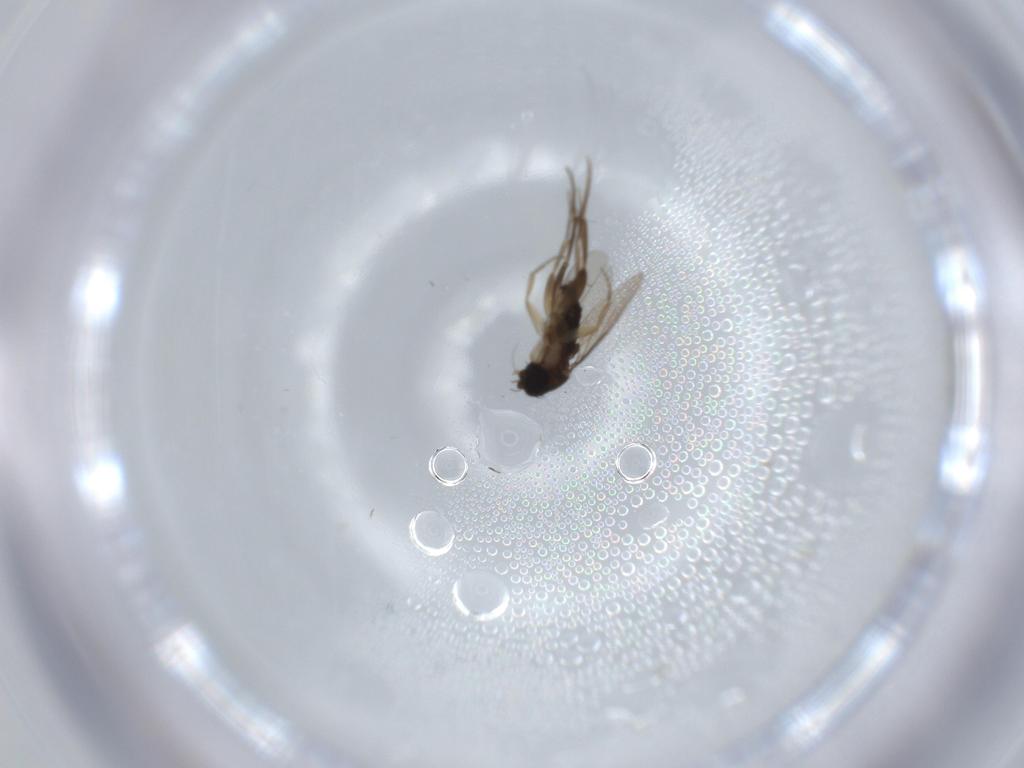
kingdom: Animalia
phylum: Arthropoda
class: Insecta
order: Diptera
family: Phoridae
